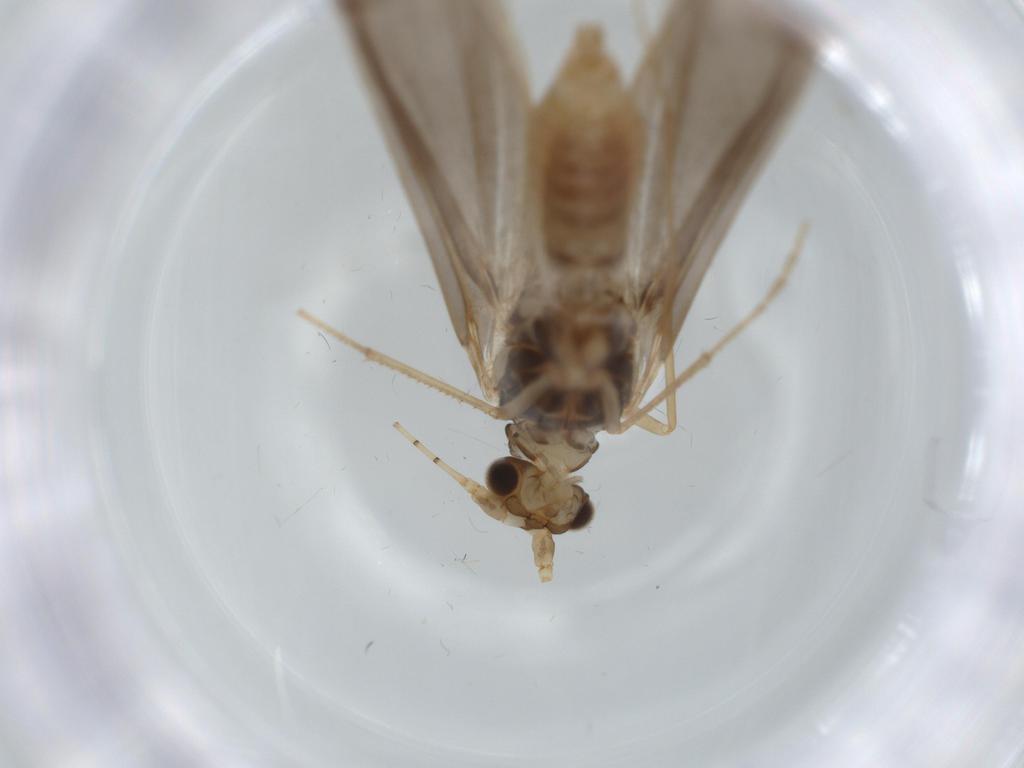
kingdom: Animalia
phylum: Arthropoda
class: Insecta
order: Trichoptera
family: Leptoceridae
